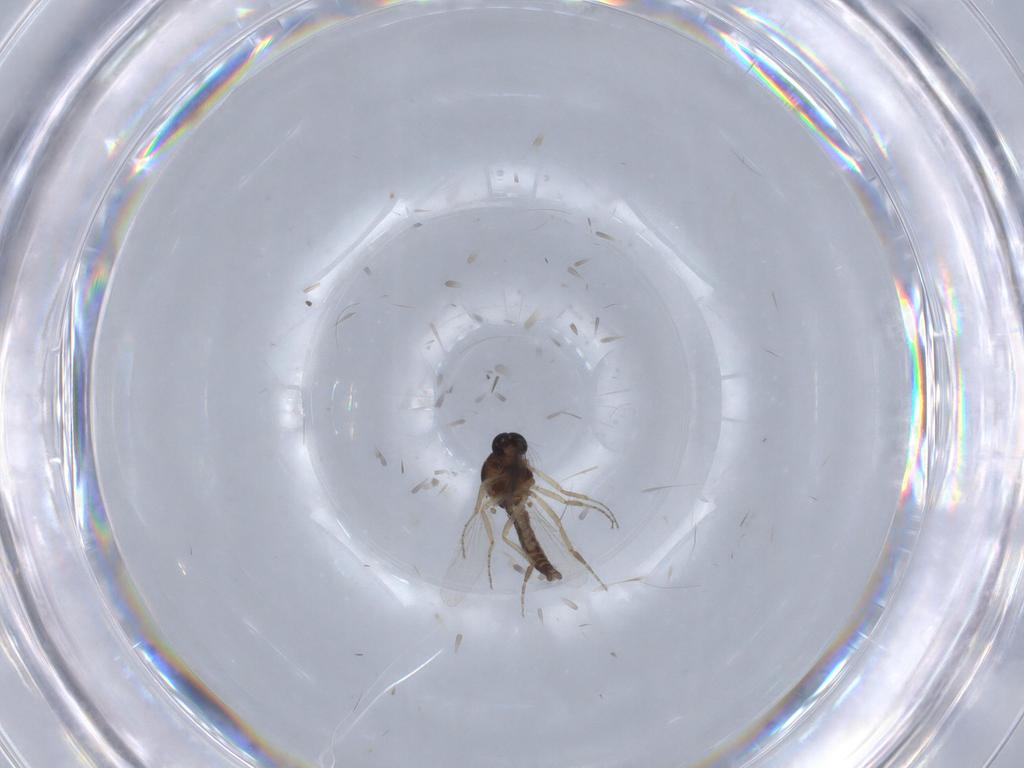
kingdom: Animalia
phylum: Arthropoda
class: Insecta
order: Diptera
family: Ceratopogonidae
